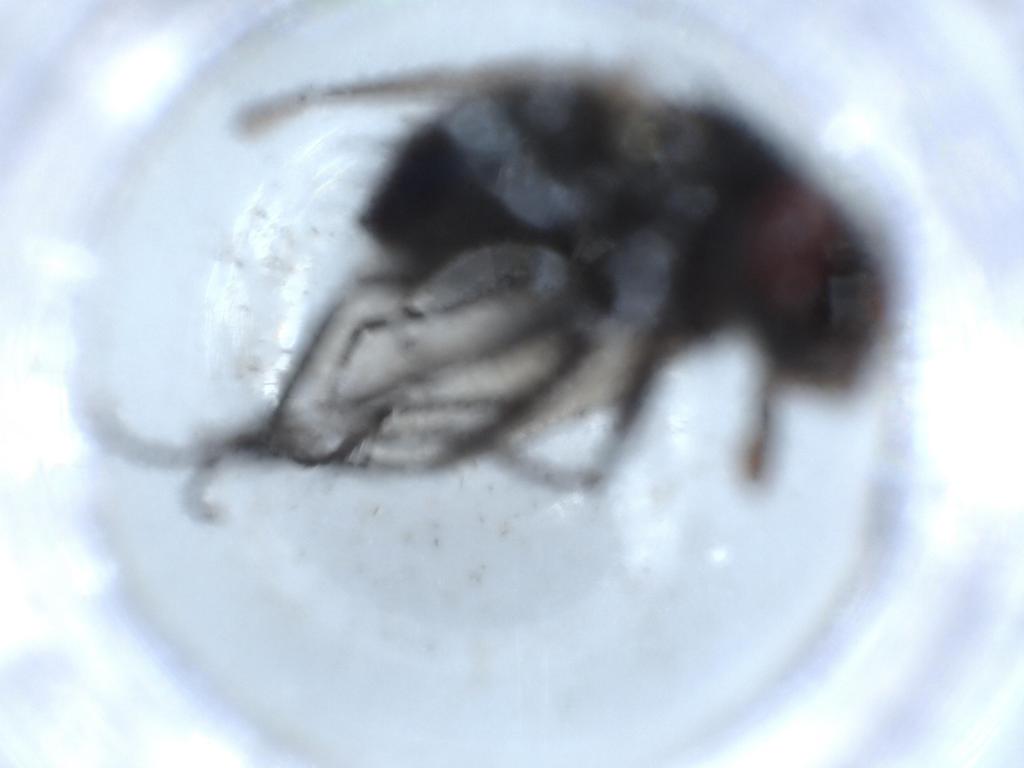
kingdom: Animalia
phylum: Arthropoda
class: Insecta
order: Diptera
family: Calliphoridae
